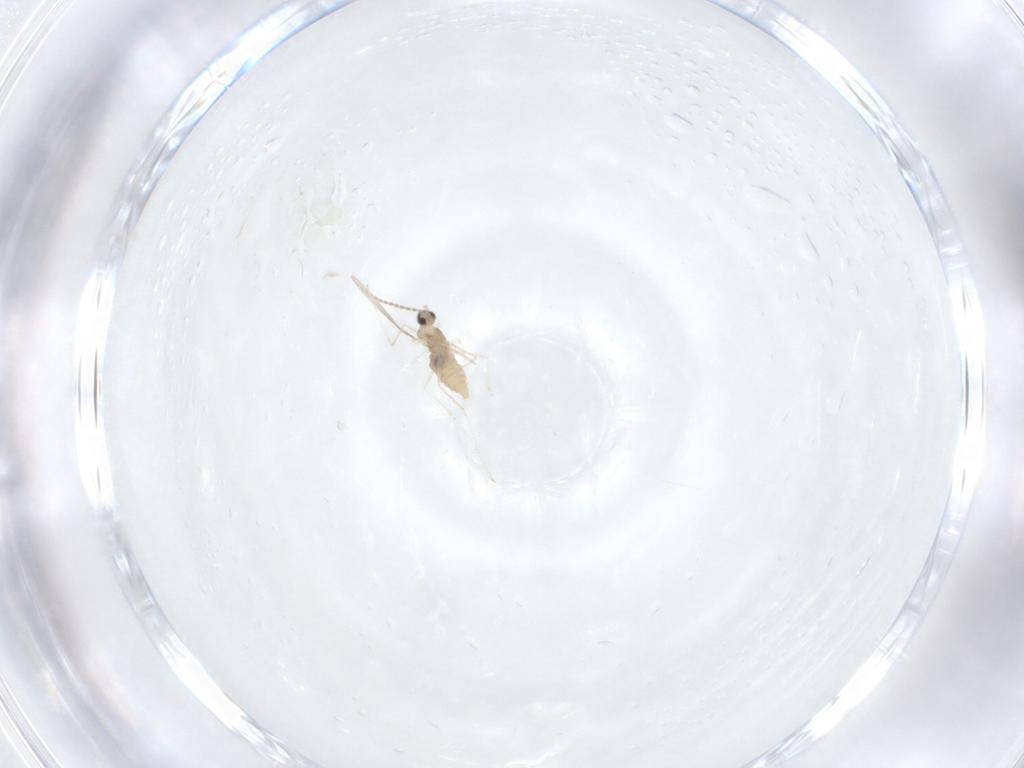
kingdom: Animalia
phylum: Arthropoda
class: Insecta
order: Diptera
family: Cecidomyiidae
